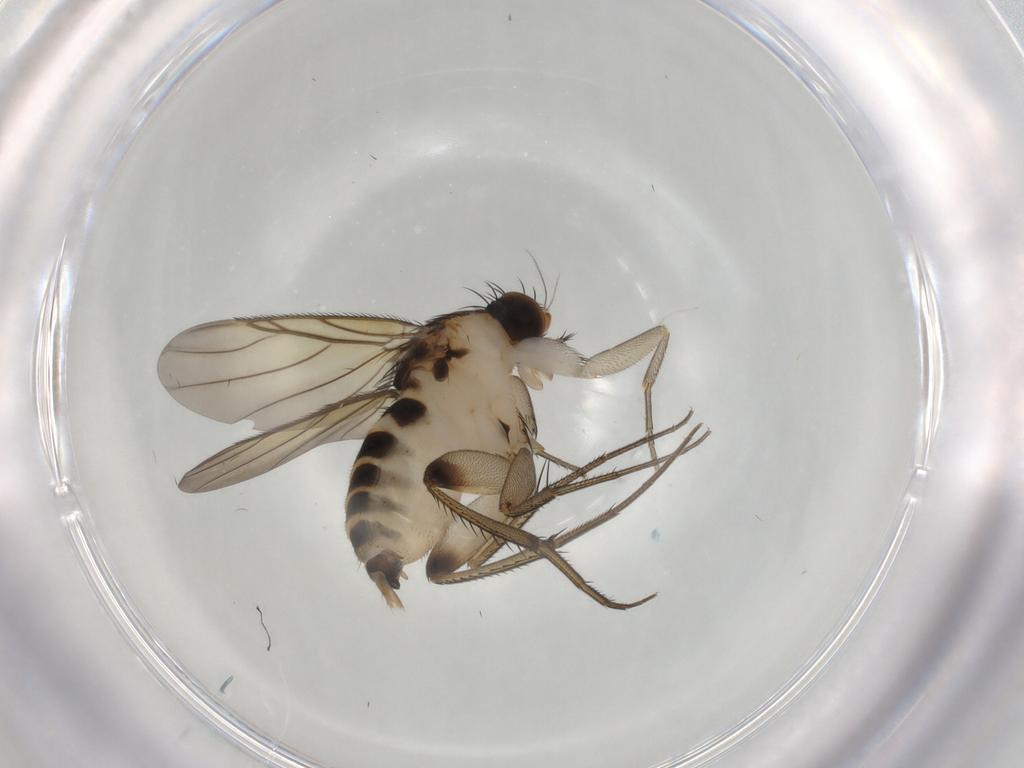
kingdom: Animalia
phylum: Arthropoda
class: Insecta
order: Diptera
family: Phoridae
